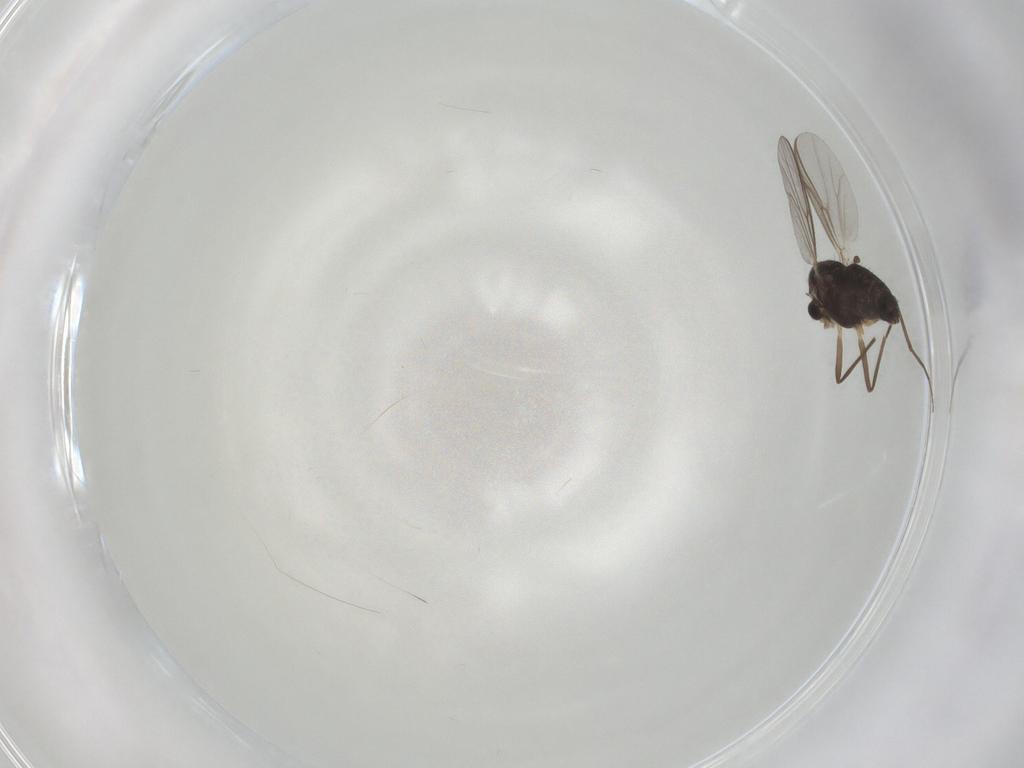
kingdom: Animalia
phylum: Arthropoda
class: Insecta
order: Diptera
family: Chironomidae
